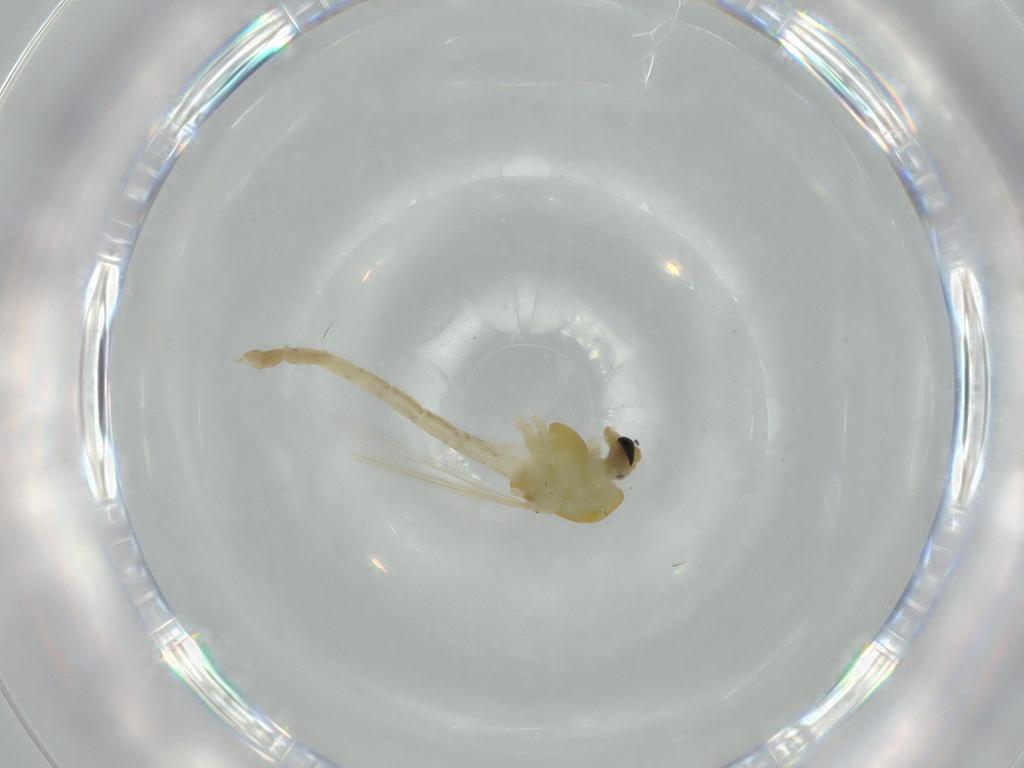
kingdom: Animalia
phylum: Arthropoda
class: Insecta
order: Diptera
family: Chironomidae
